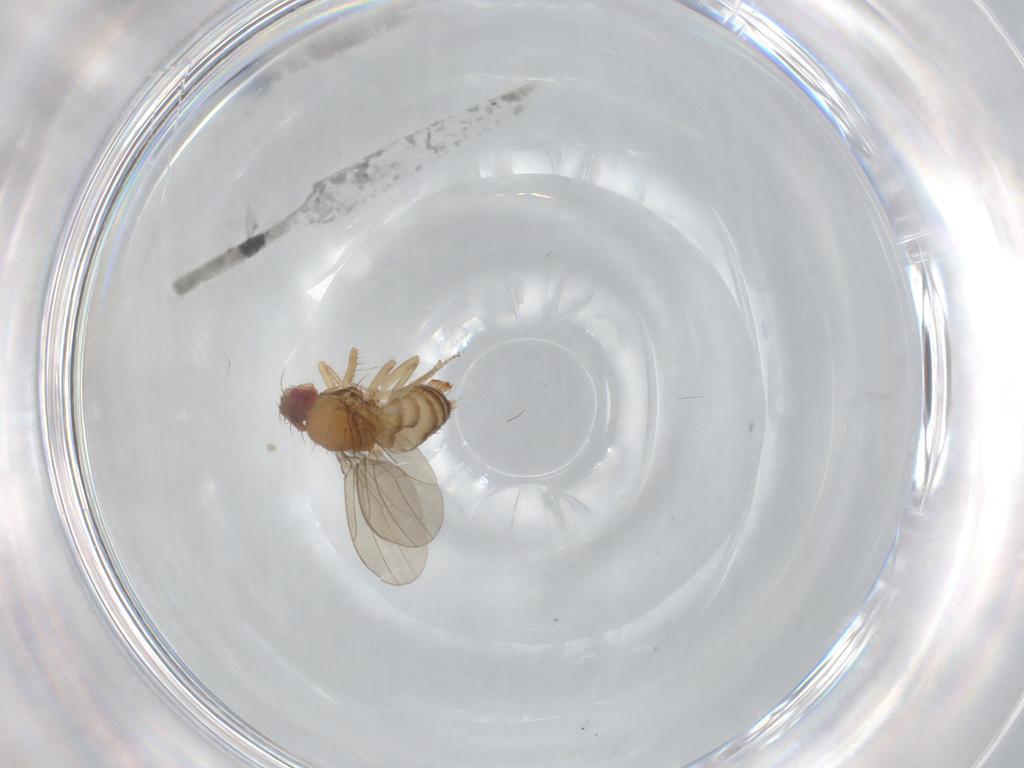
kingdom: Animalia
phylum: Arthropoda
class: Insecta
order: Diptera
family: Drosophilidae
